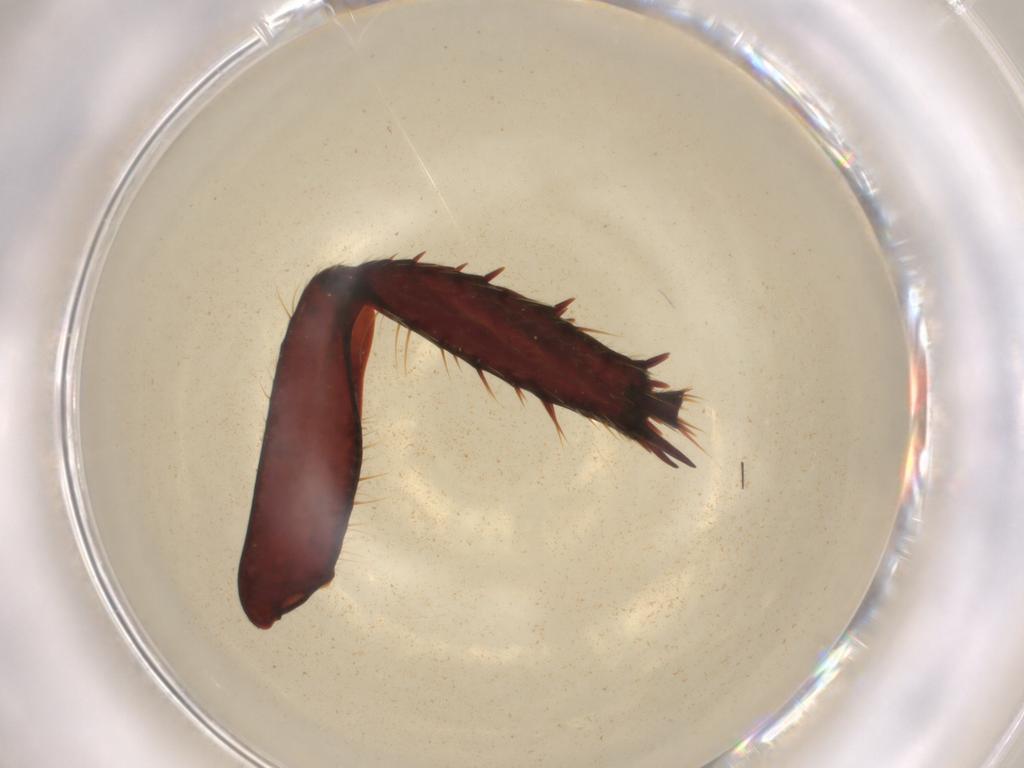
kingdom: Animalia
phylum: Arthropoda
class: Insecta
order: Coleoptera
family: Scarabaeidae
